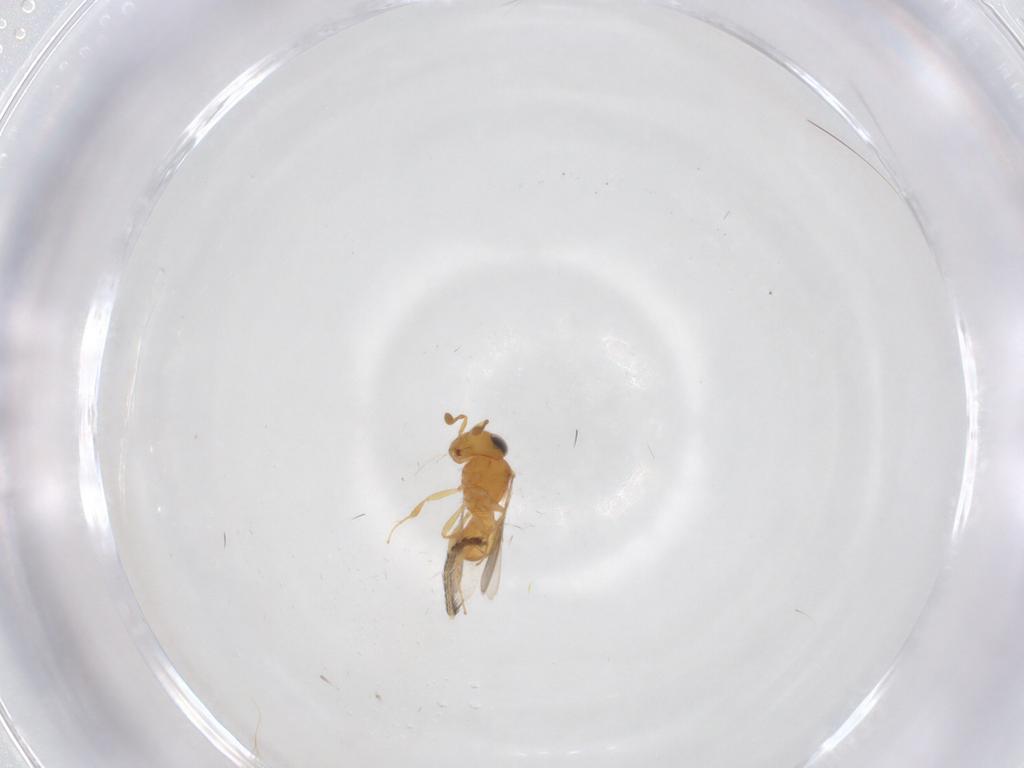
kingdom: Animalia
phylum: Arthropoda
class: Insecta
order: Hymenoptera
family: Scelionidae
